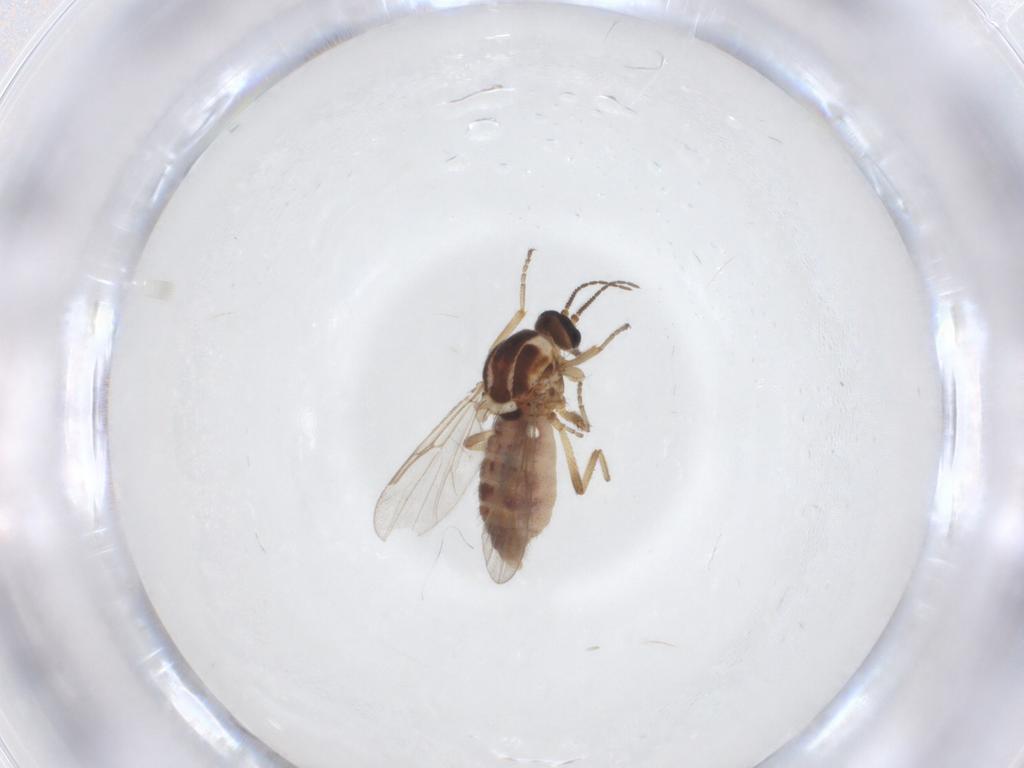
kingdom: Animalia
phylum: Arthropoda
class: Insecta
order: Diptera
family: Ceratopogonidae
